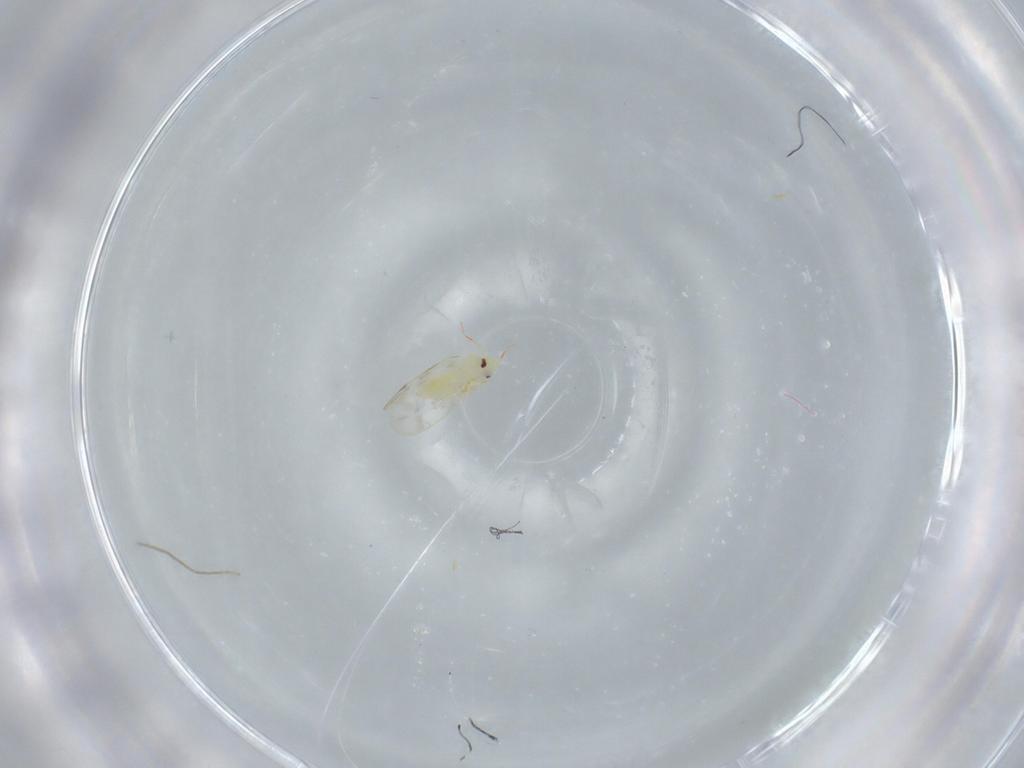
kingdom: Animalia
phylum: Arthropoda
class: Insecta
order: Hemiptera
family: Aleyrodidae
